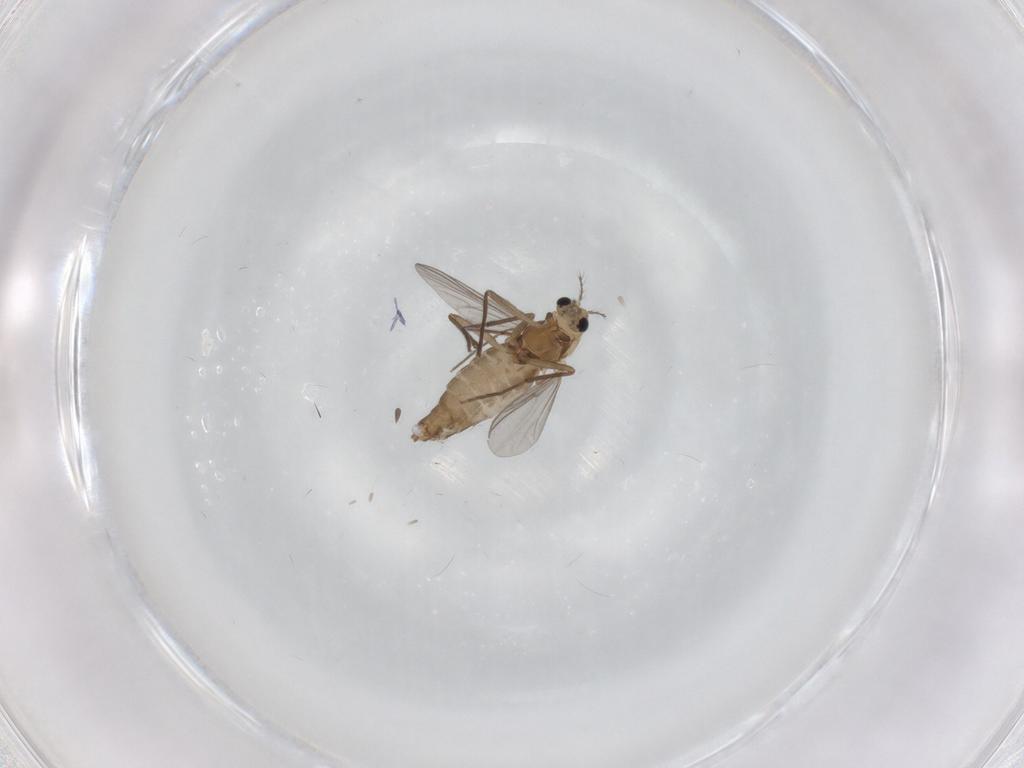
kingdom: Animalia
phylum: Arthropoda
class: Insecta
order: Diptera
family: Chironomidae
